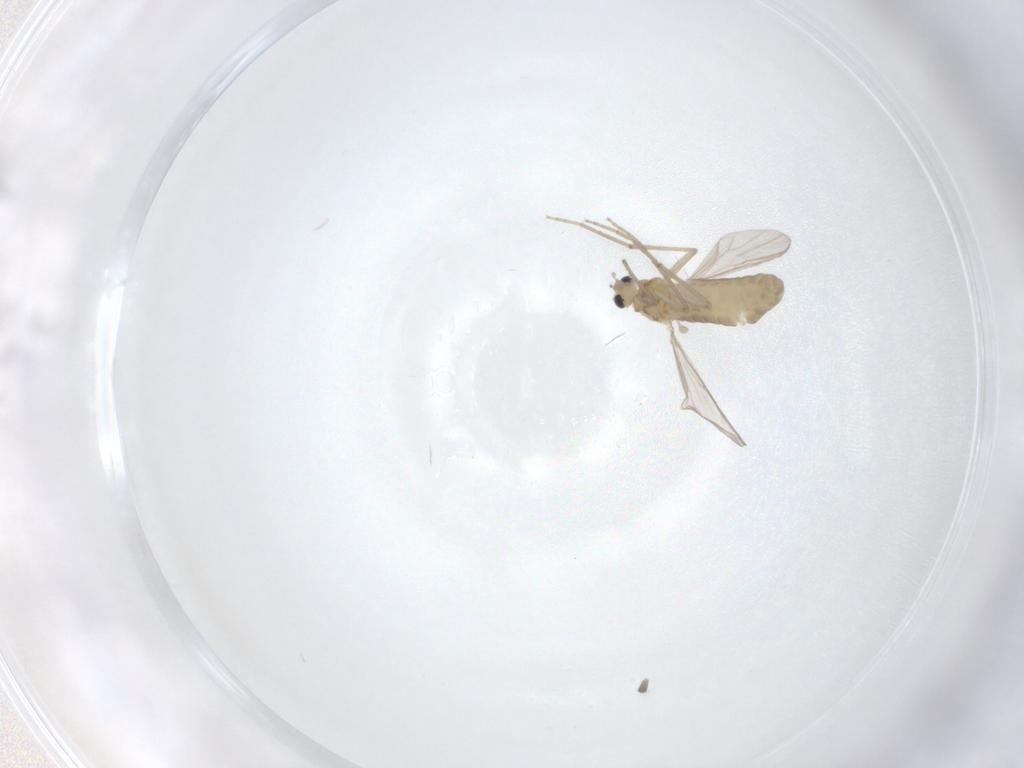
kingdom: Animalia
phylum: Arthropoda
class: Insecta
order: Diptera
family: Chironomidae
